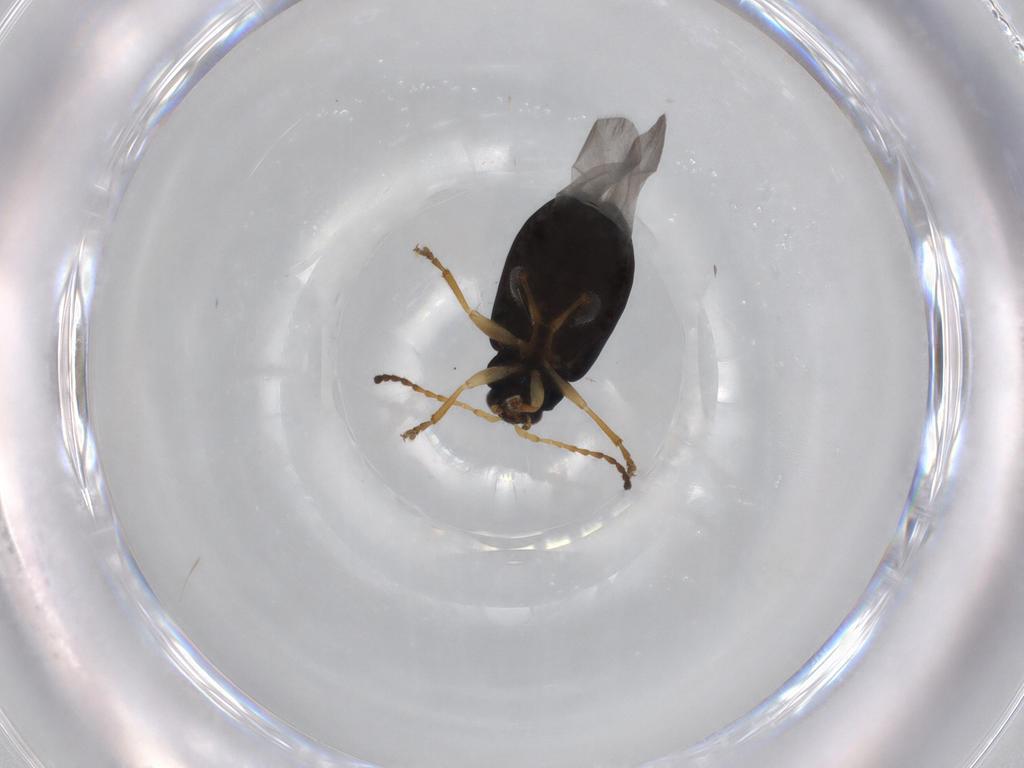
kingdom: Animalia
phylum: Arthropoda
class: Insecta
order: Coleoptera
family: Chrysomelidae
